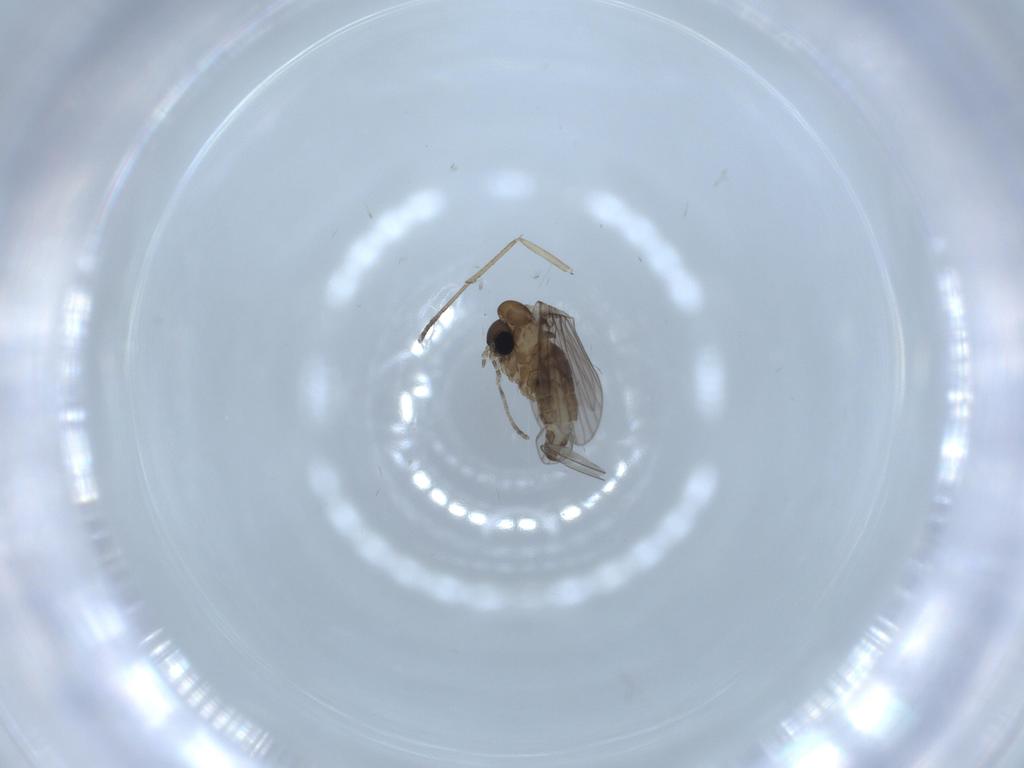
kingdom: Animalia
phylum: Arthropoda
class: Insecta
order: Diptera
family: Psychodidae
